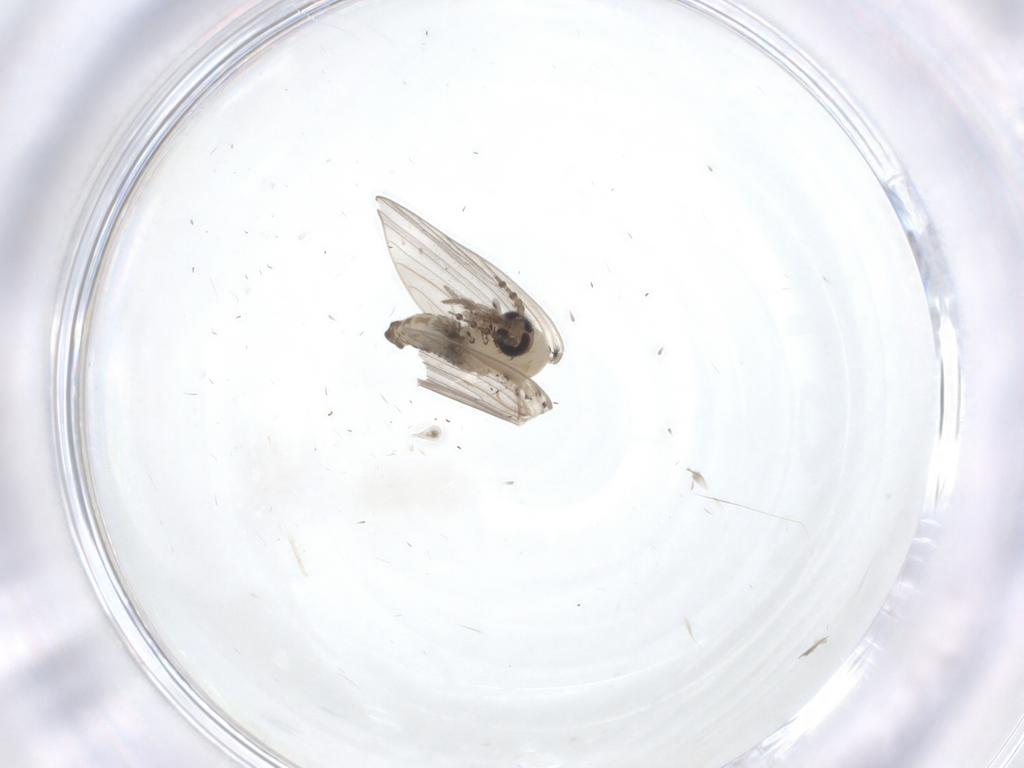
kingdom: Animalia
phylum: Arthropoda
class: Insecta
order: Diptera
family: Psychodidae
